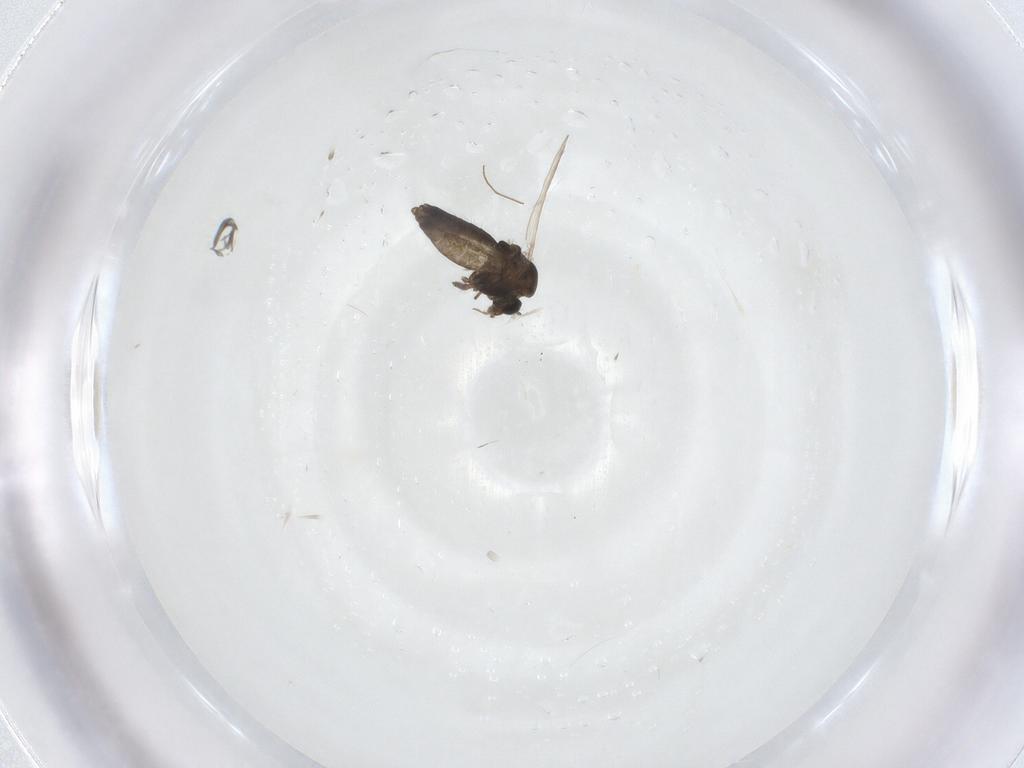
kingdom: Animalia
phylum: Arthropoda
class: Insecta
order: Diptera
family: Chironomidae
